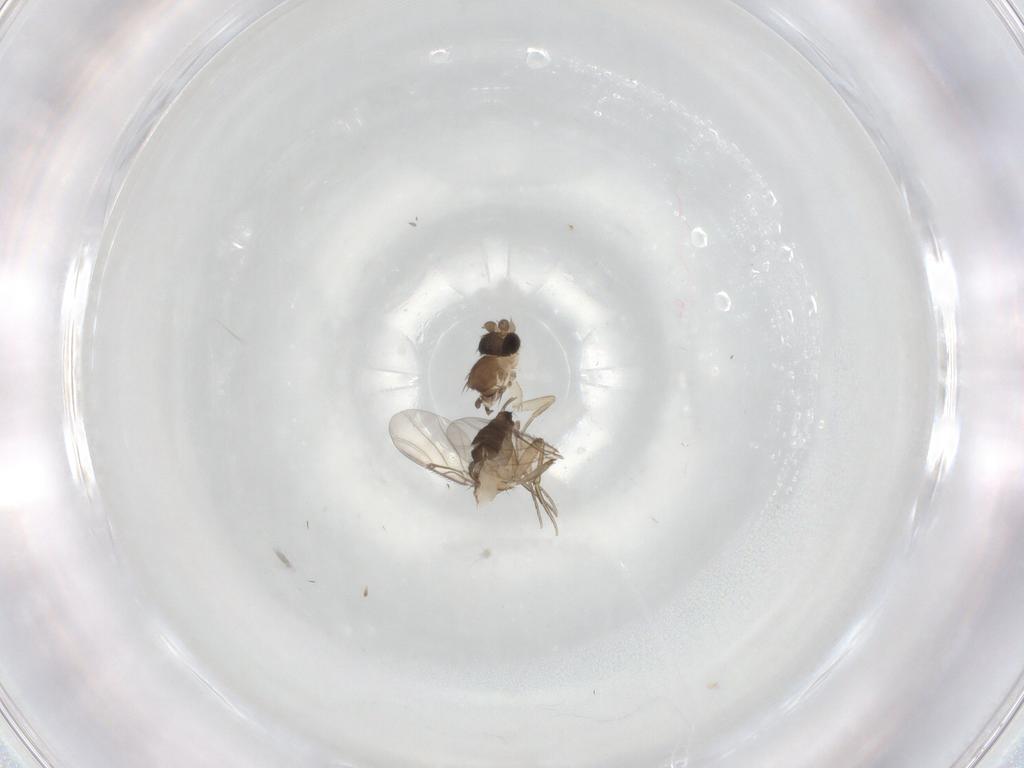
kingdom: Animalia
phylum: Arthropoda
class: Insecta
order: Diptera
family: Phoridae
